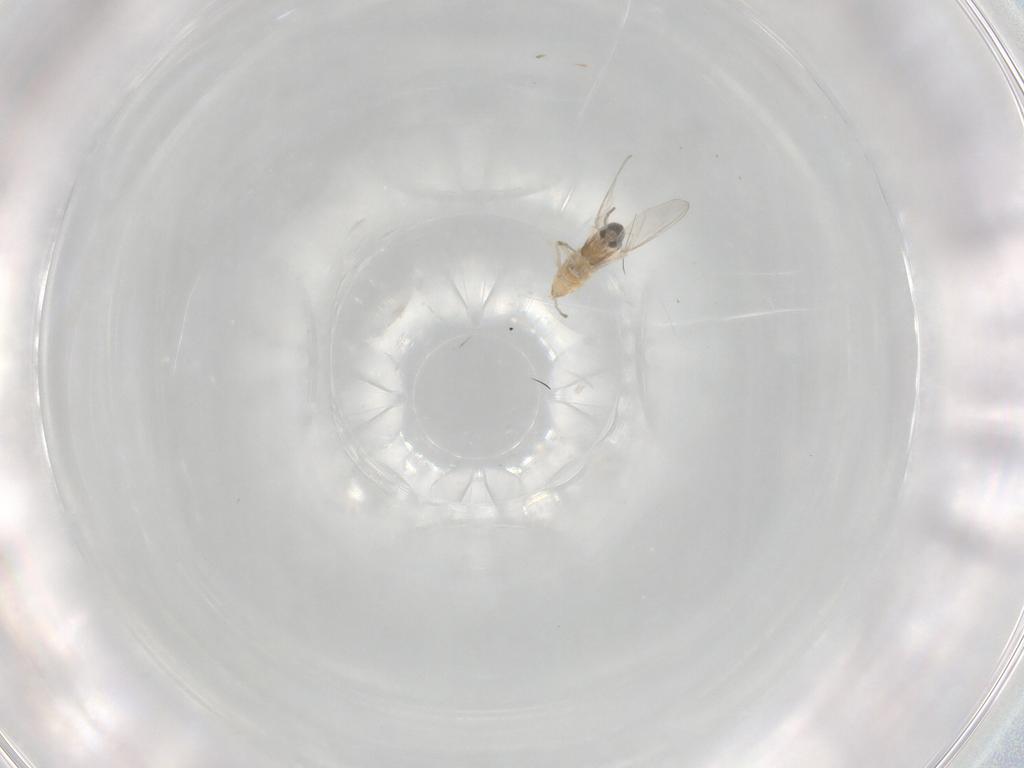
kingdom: Animalia
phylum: Arthropoda
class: Insecta
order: Diptera
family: Cecidomyiidae
